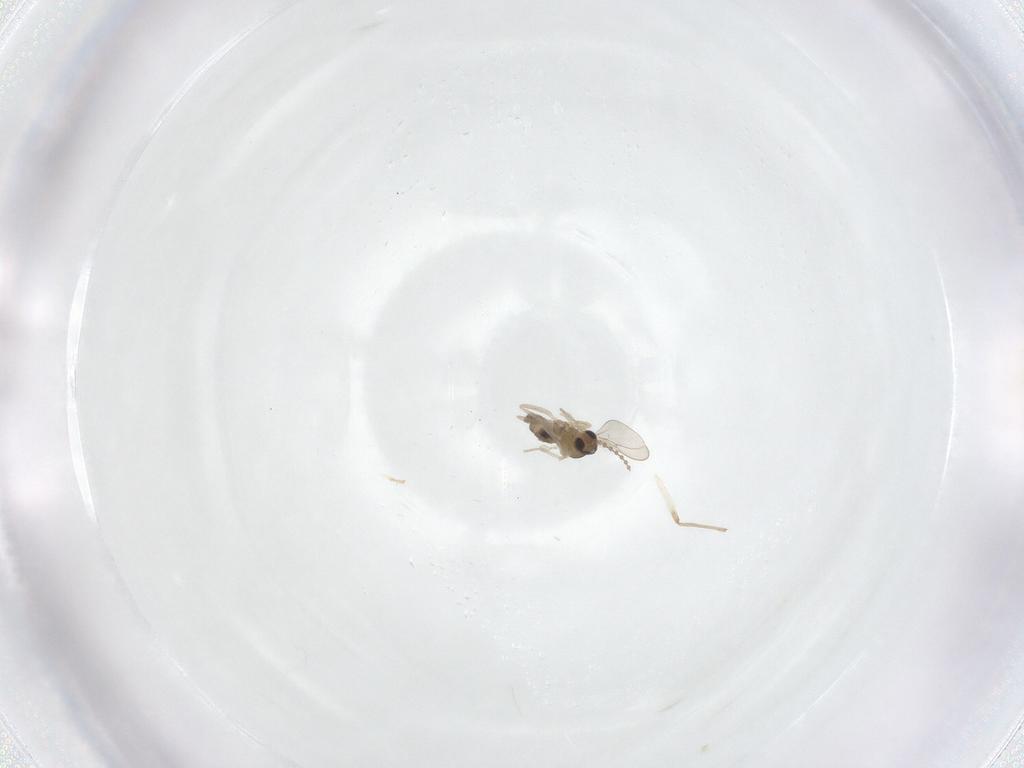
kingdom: Animalia
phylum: Arthropoda
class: Insecta
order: Diptera
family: Cecidomyiidae
